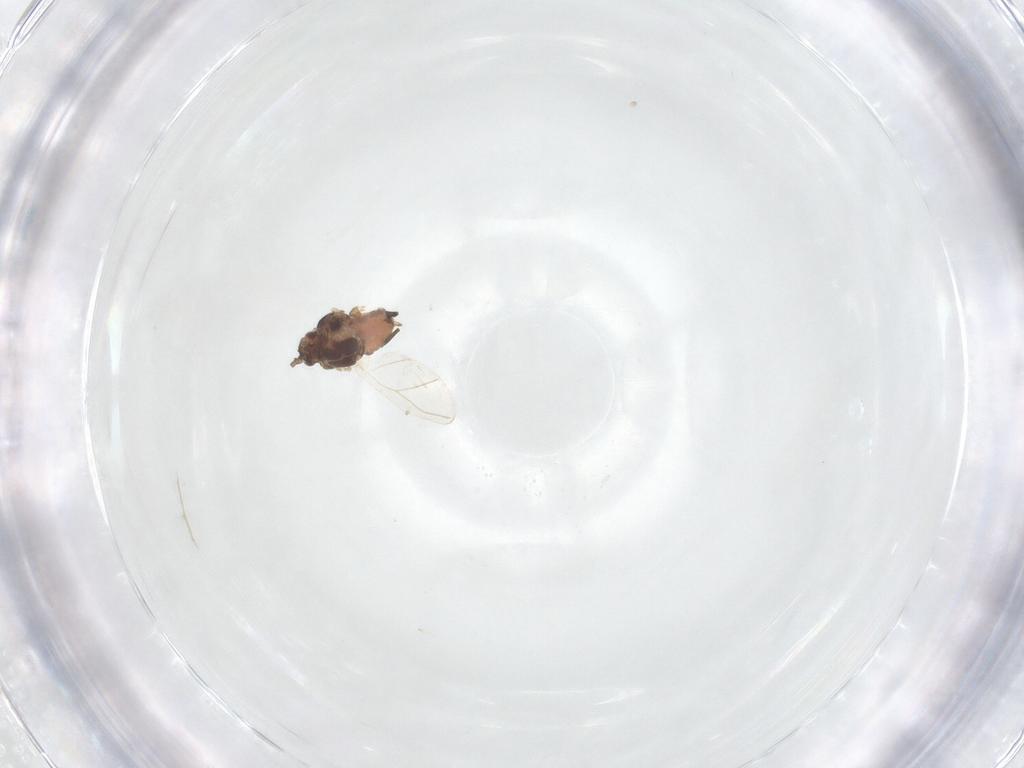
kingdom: Animalia
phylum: Arthropoda
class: Insecta
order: Hemiptera
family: Aphididae
